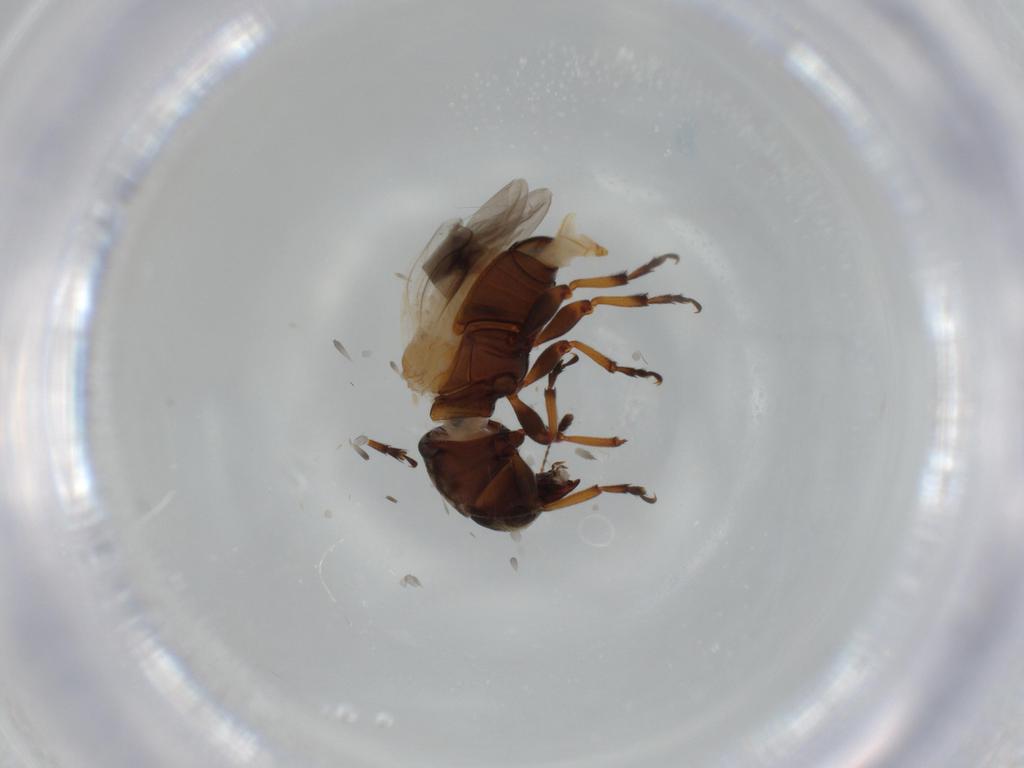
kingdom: Animalia
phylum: Arthropoda
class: Insecta
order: Coleoptera
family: Anthribidae
